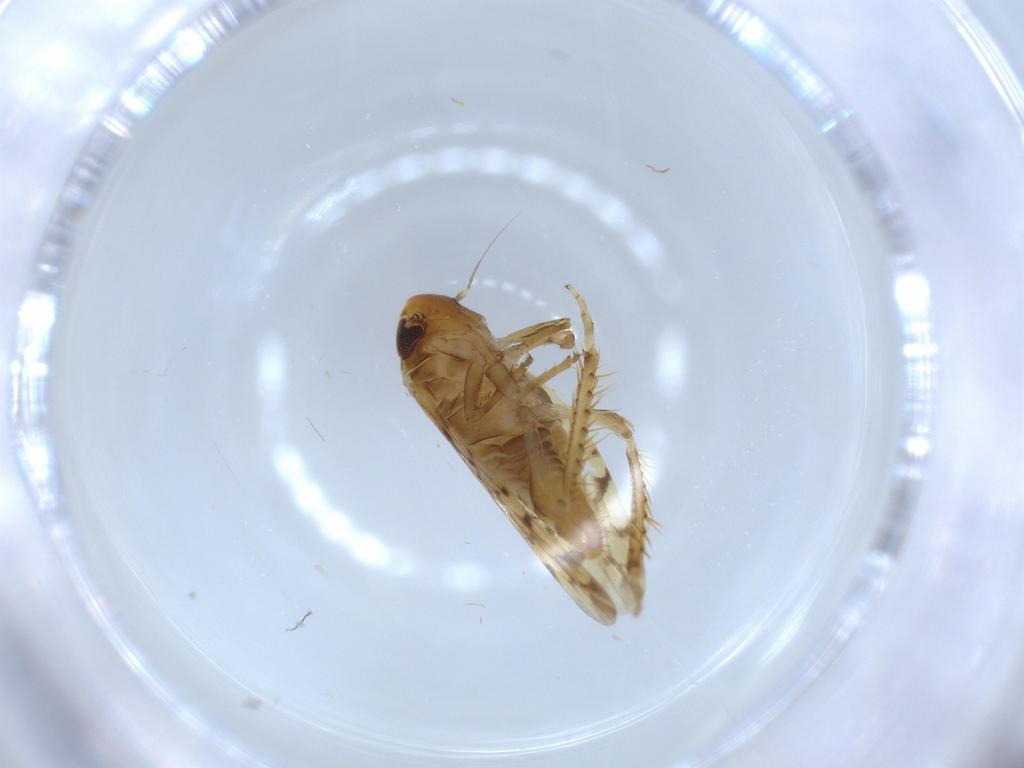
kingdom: Animalia
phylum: Arthropoda
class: Insecta
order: Hemiptera
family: Cicadellidae
